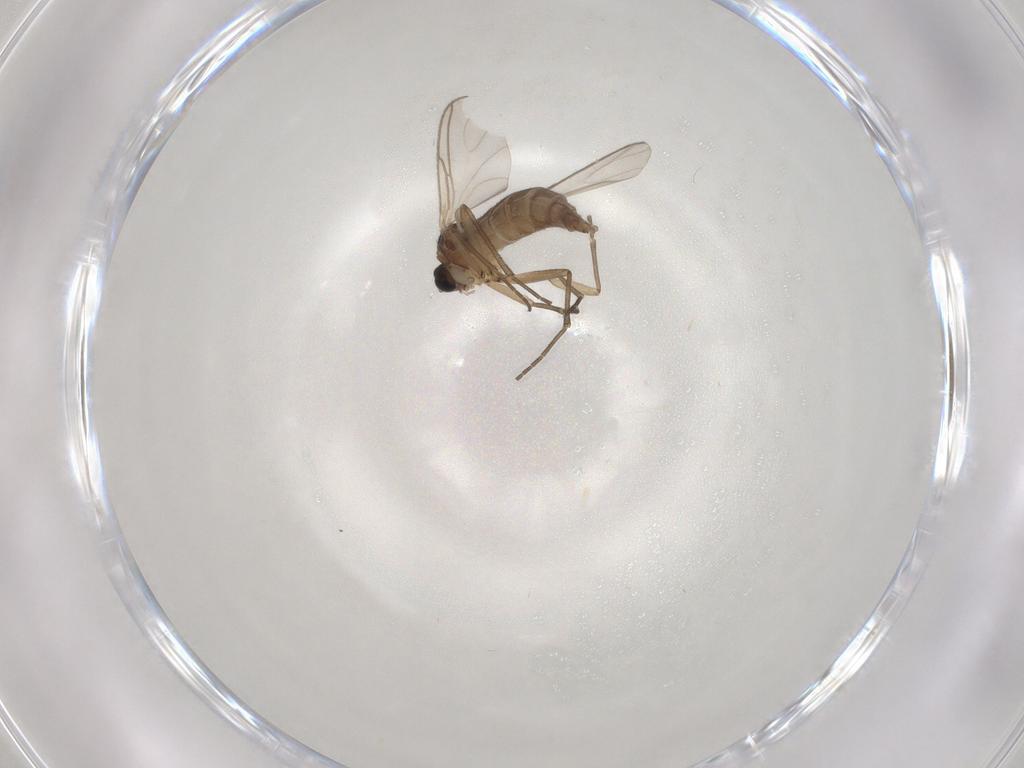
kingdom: Animalia
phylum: Arthropoda
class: Insecta
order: Diptera
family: Sciaridae
